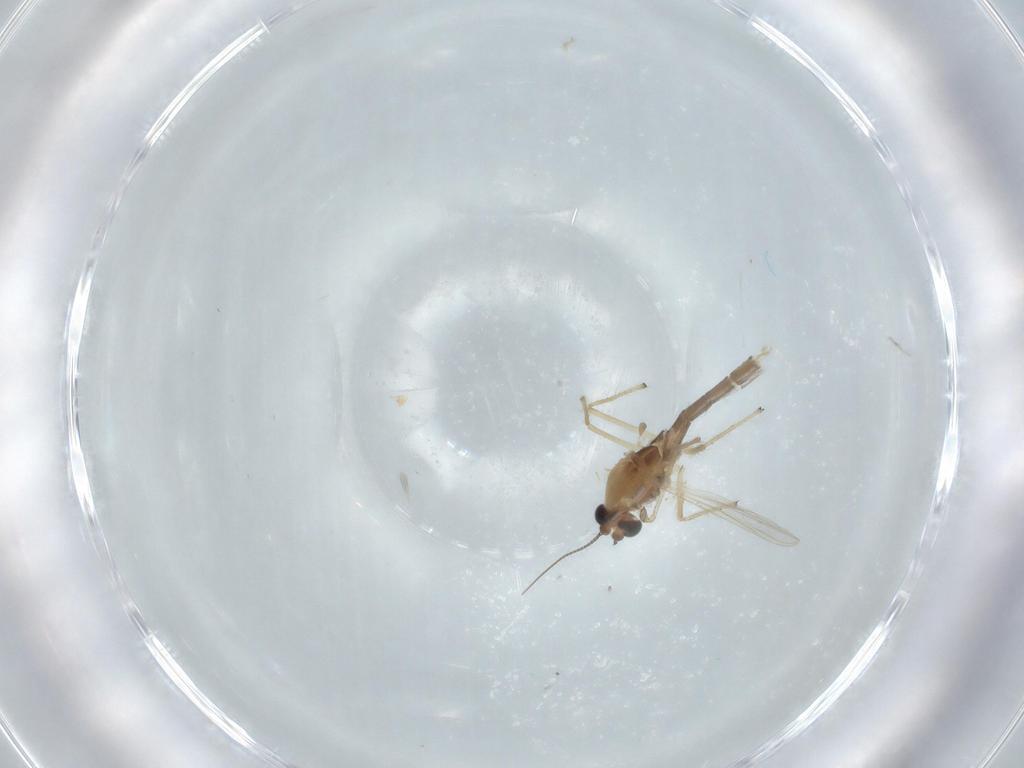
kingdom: Animalia
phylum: Arthropoda
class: Insecta
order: Diptera
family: Chironomidae
